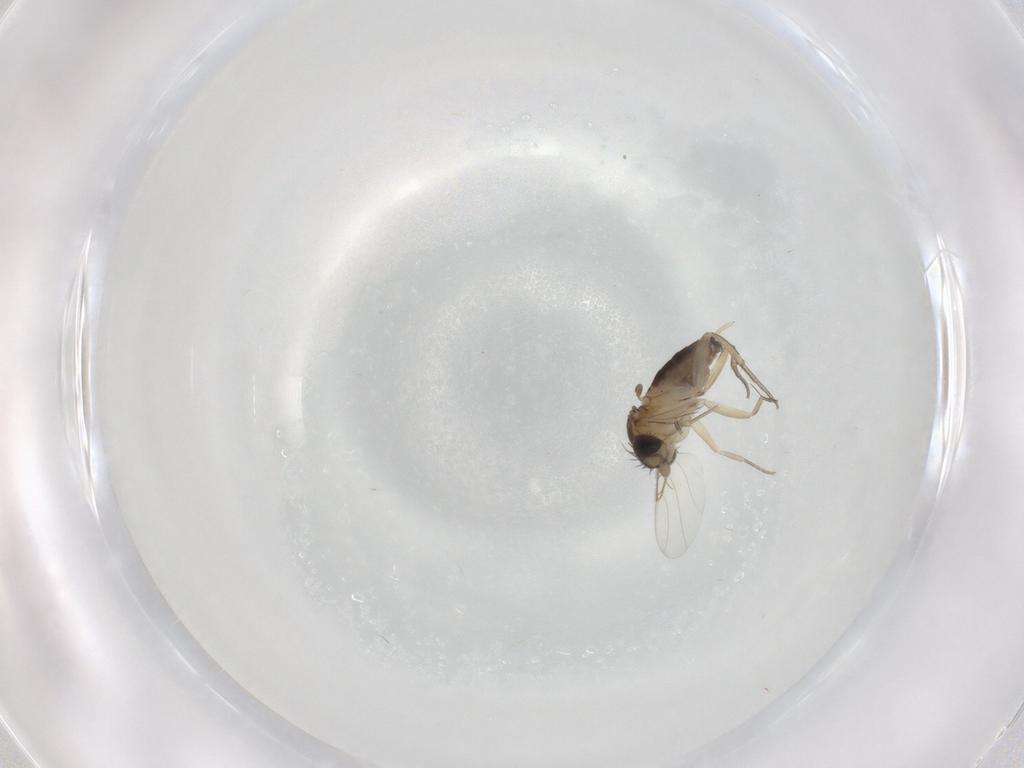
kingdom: Animalia
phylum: Arthropoda
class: Insecta
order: Diptera
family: Phoridae
